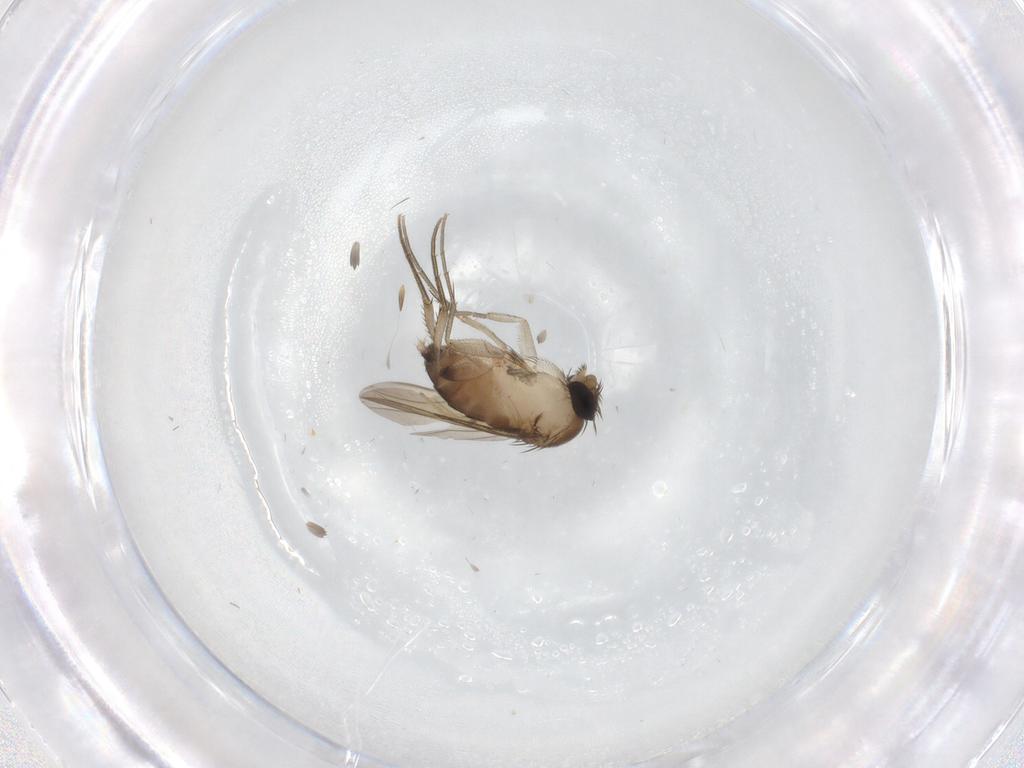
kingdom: Animalia
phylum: Arthropoda
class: Insecta
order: Diptera
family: Phoridae
